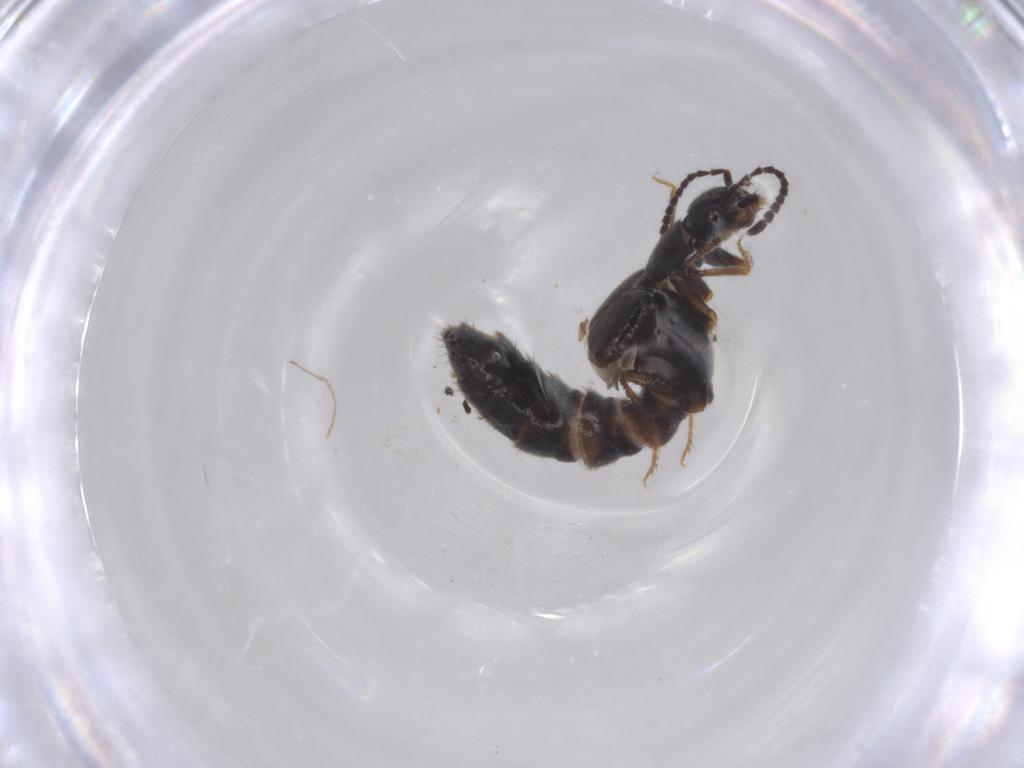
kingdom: Animalia
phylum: Arthropoda
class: Insecta
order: Coleoptera
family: Staphylinidae
